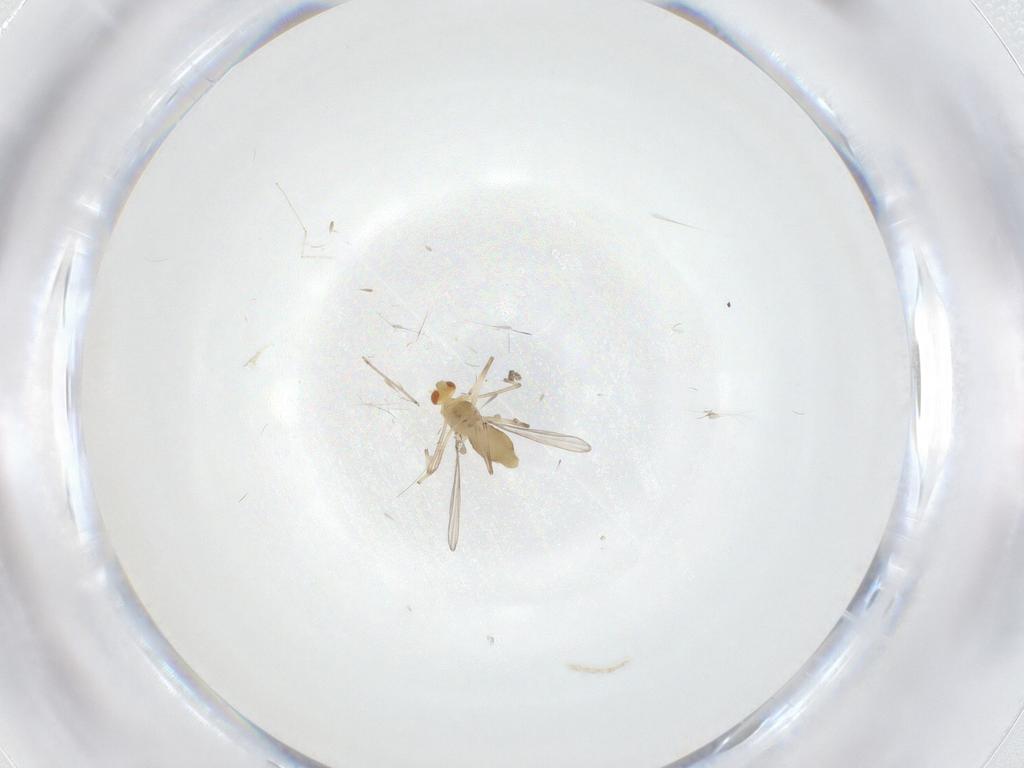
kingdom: Animalia
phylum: Arthropoda
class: Insecta
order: Diptera
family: Chironomidae
